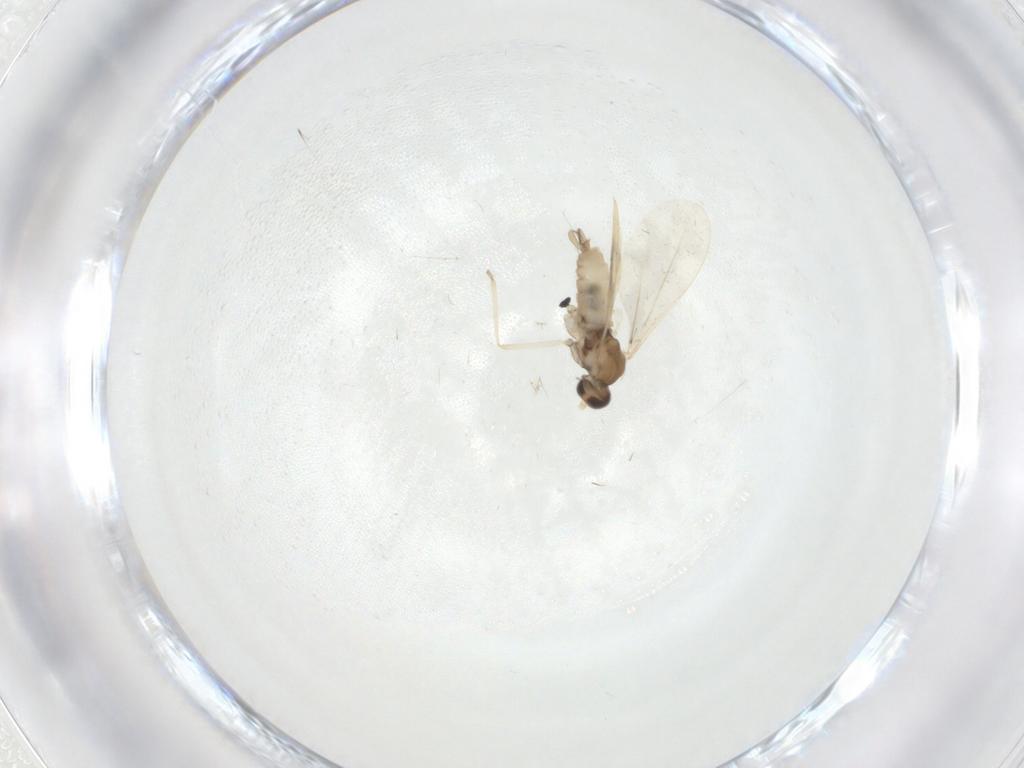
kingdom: Animalia
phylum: Arthropoda
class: Insecta
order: Diptera
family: Cecidomyiidae
